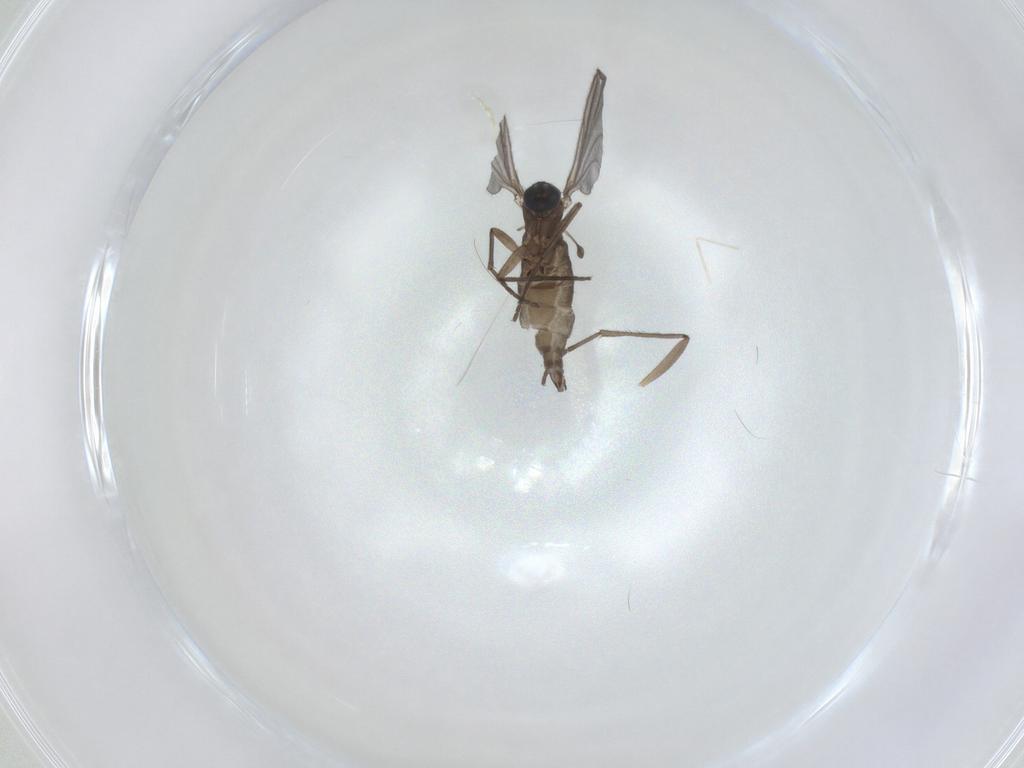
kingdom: Animalia
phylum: Arthropoda
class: Insecta
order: Diptera
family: Sciaridae
